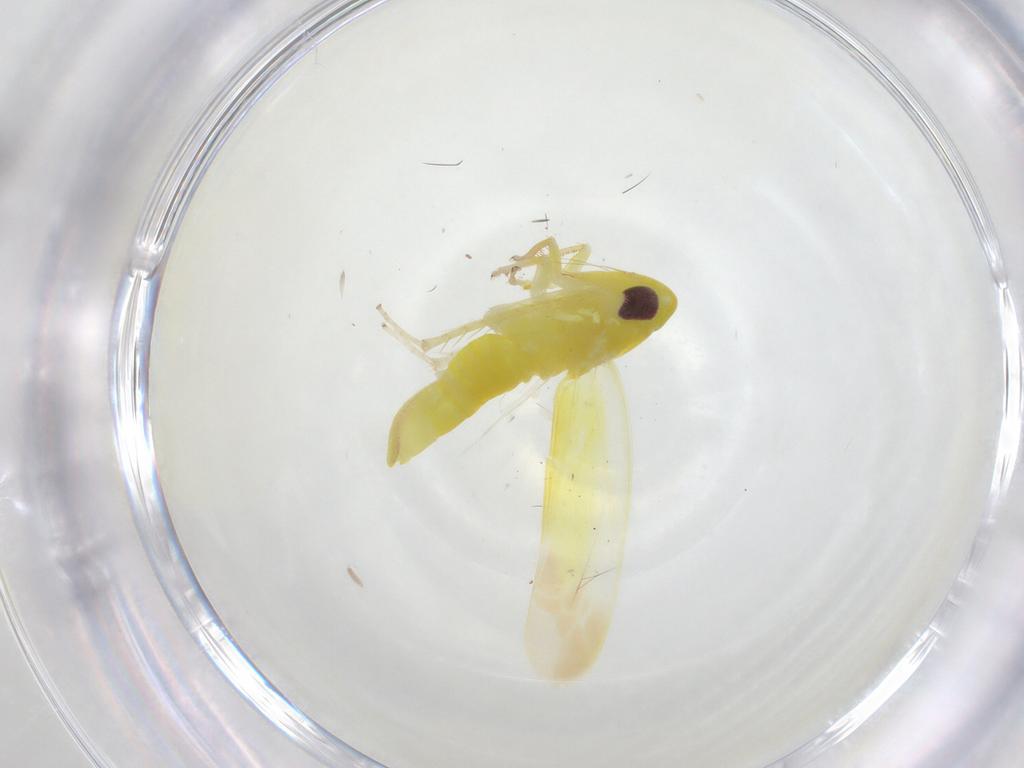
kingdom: Animalia
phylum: Arthropoda
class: Insecta
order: Hemiptera
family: Cicadellidae
